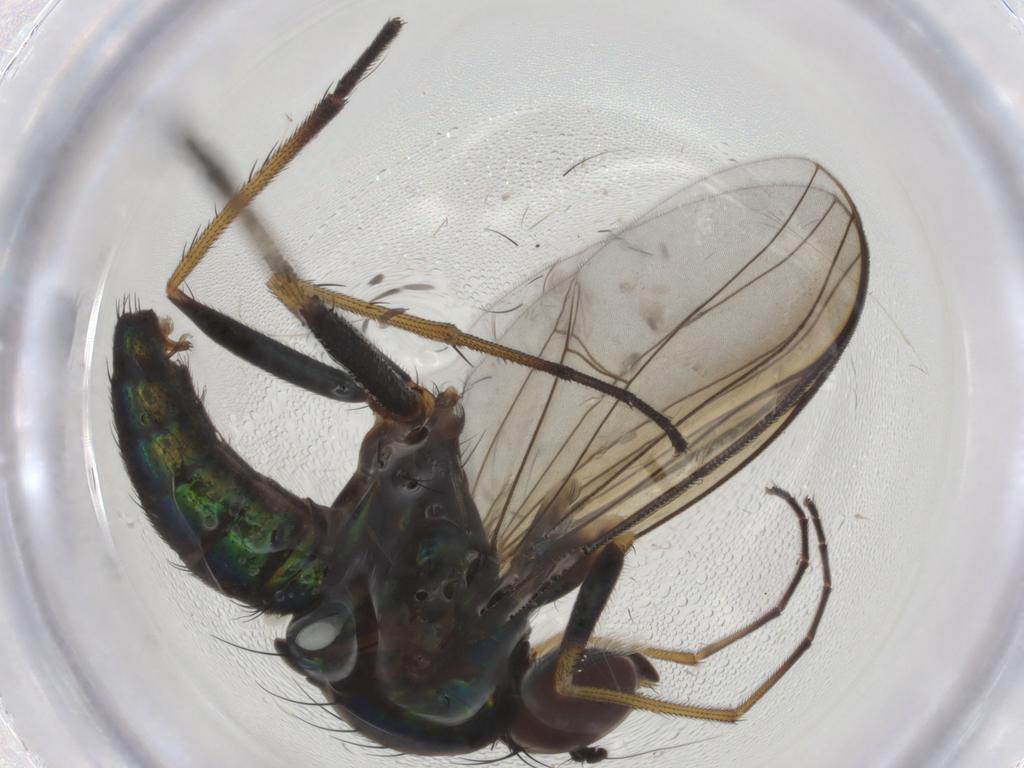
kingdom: Animalia
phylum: Arthropoda
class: Insecta
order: Diptera
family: Dolichopodidae
